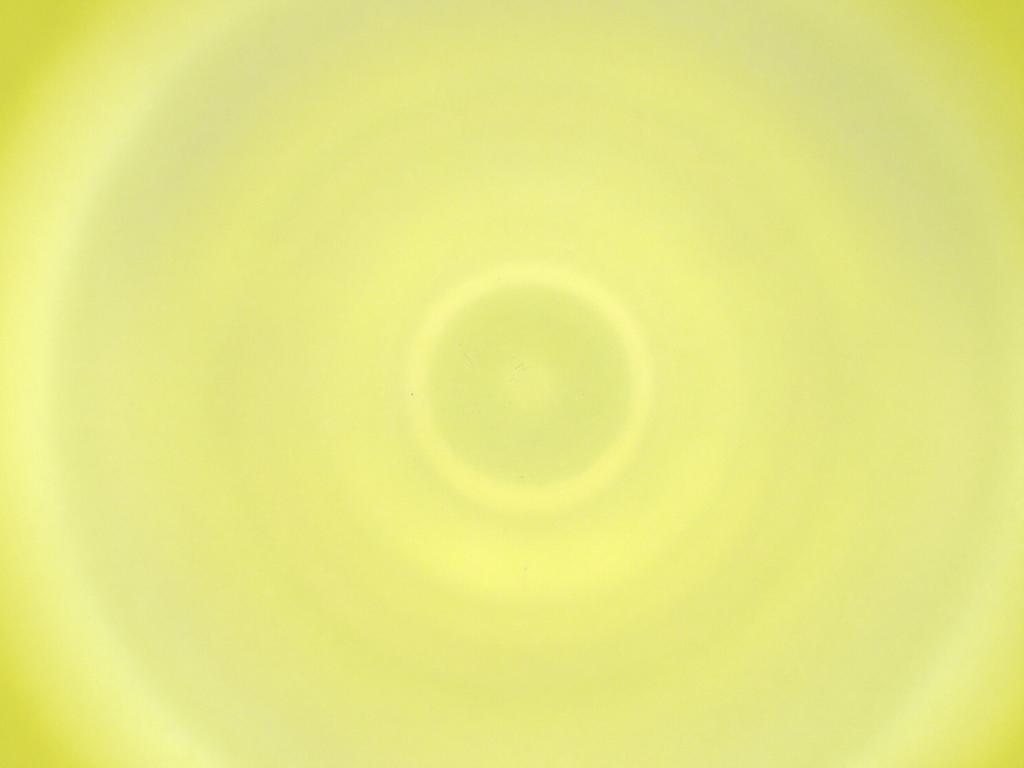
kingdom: Animalia
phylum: Arthropoda
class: Insecta
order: Diptera
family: Cecidomyiidae
